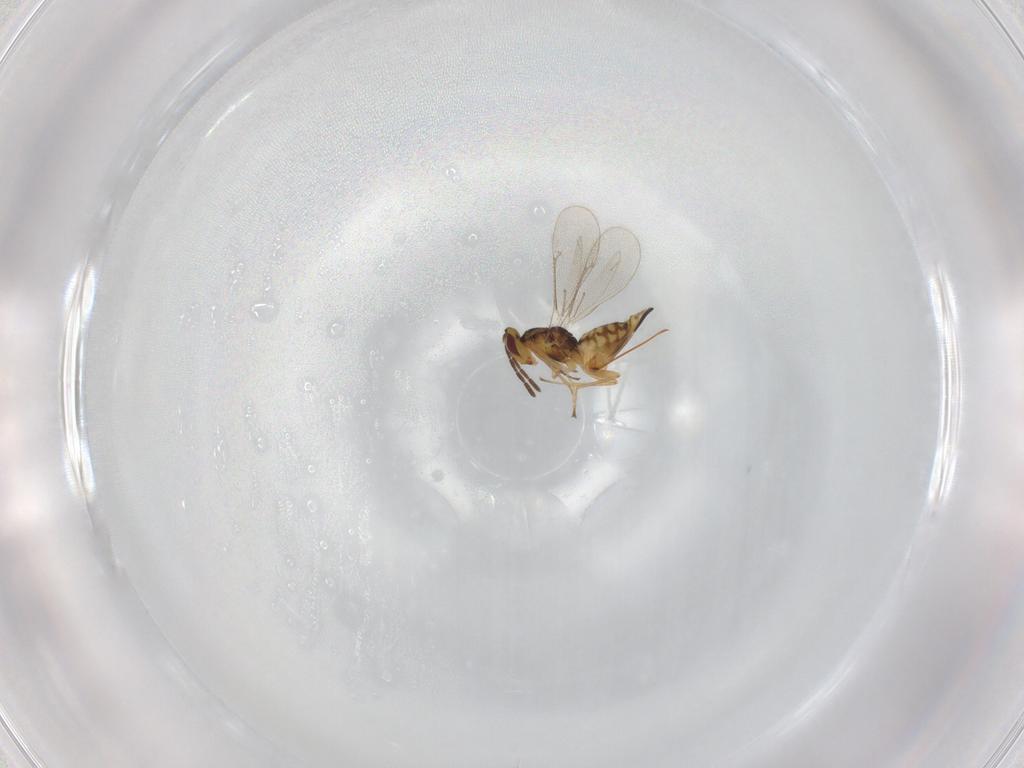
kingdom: Animalia
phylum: Arthropoda
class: Insecta
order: Hymenoptera
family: Eulophidae
